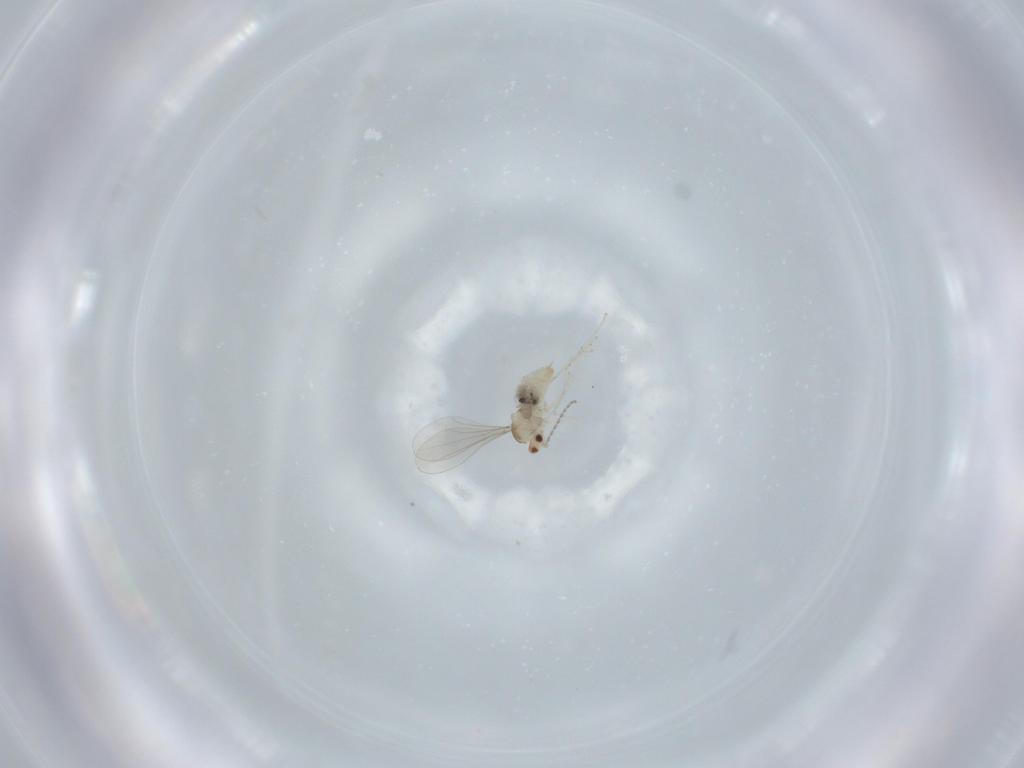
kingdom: Animalia
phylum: Arthropoda
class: Insecta
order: Diptera
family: Cecidomyiidae
